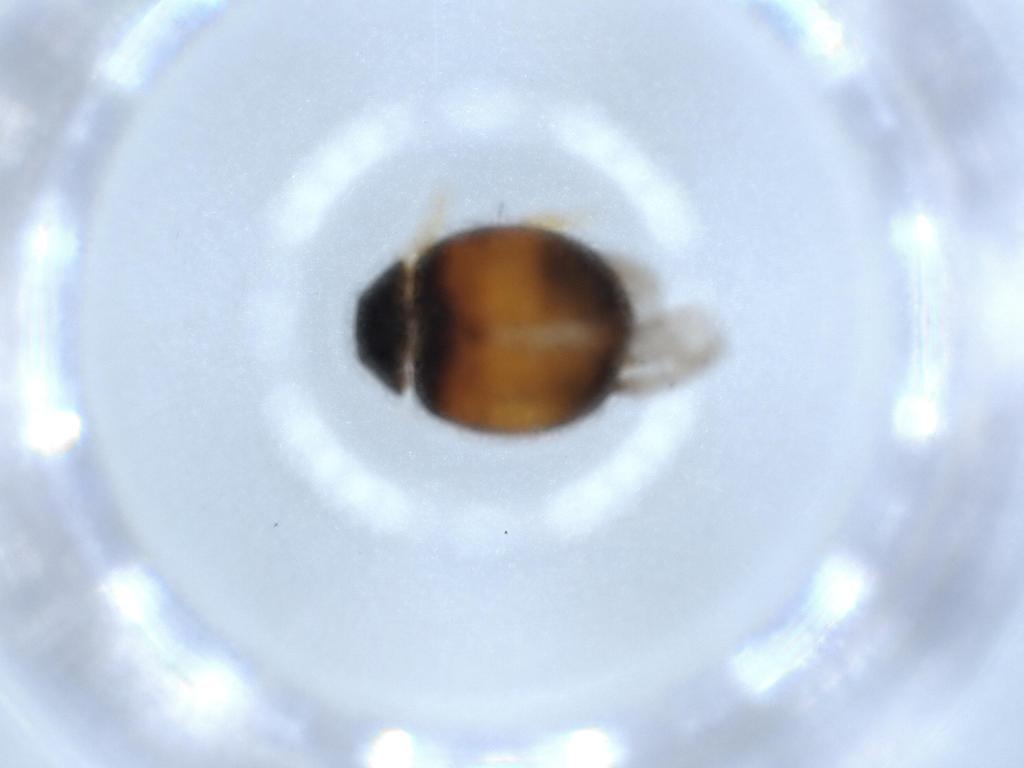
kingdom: Animalia
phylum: Arthropoda
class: Insecta
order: Coleoptera
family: Coccinellidae
